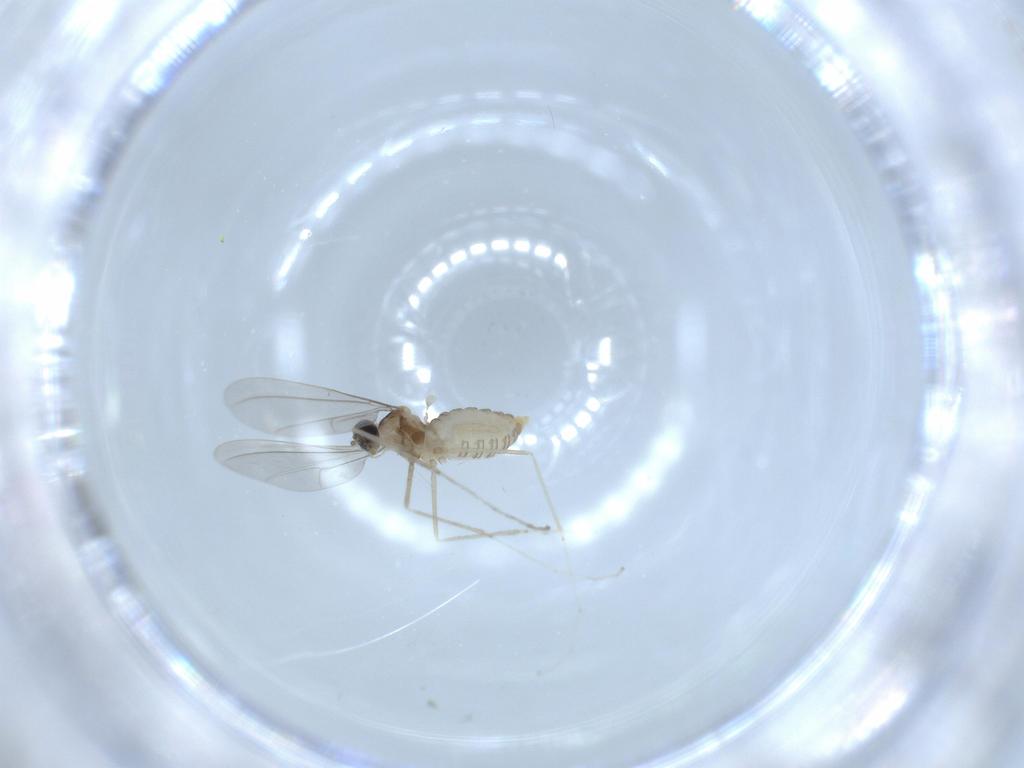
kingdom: Animalia
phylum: Arthropoda
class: Insecta
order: Diptera
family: Cecidomyiidae
